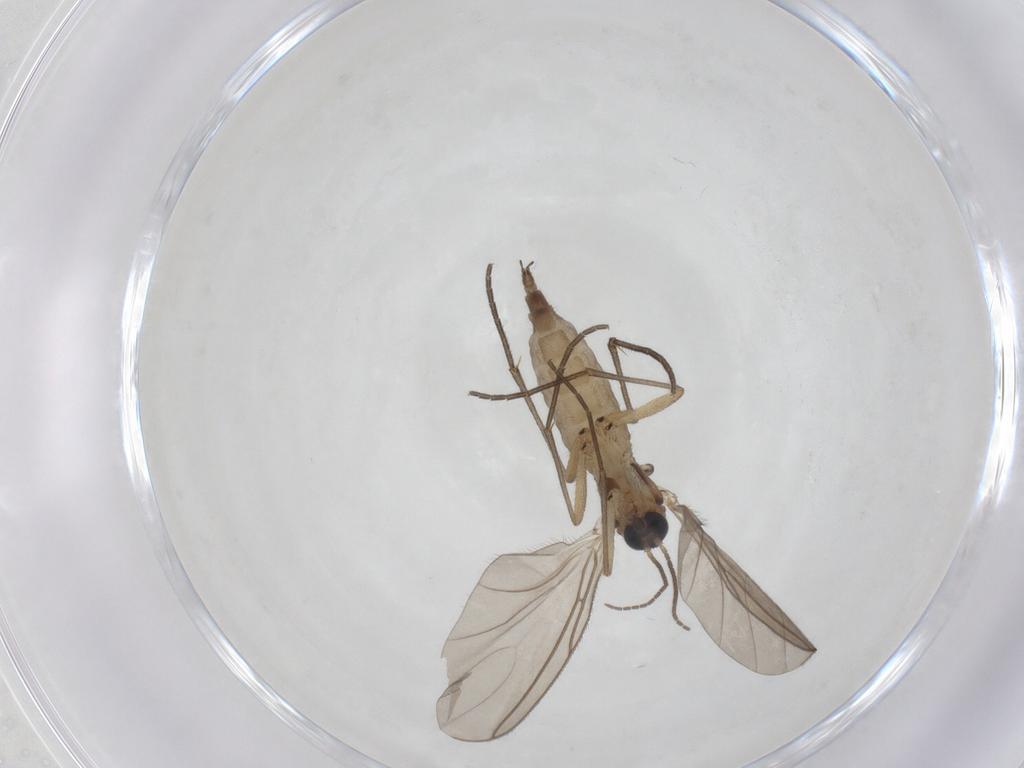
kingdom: Animalia
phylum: Arthropoda
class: Insecta
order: Diptera
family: Sciaridae
